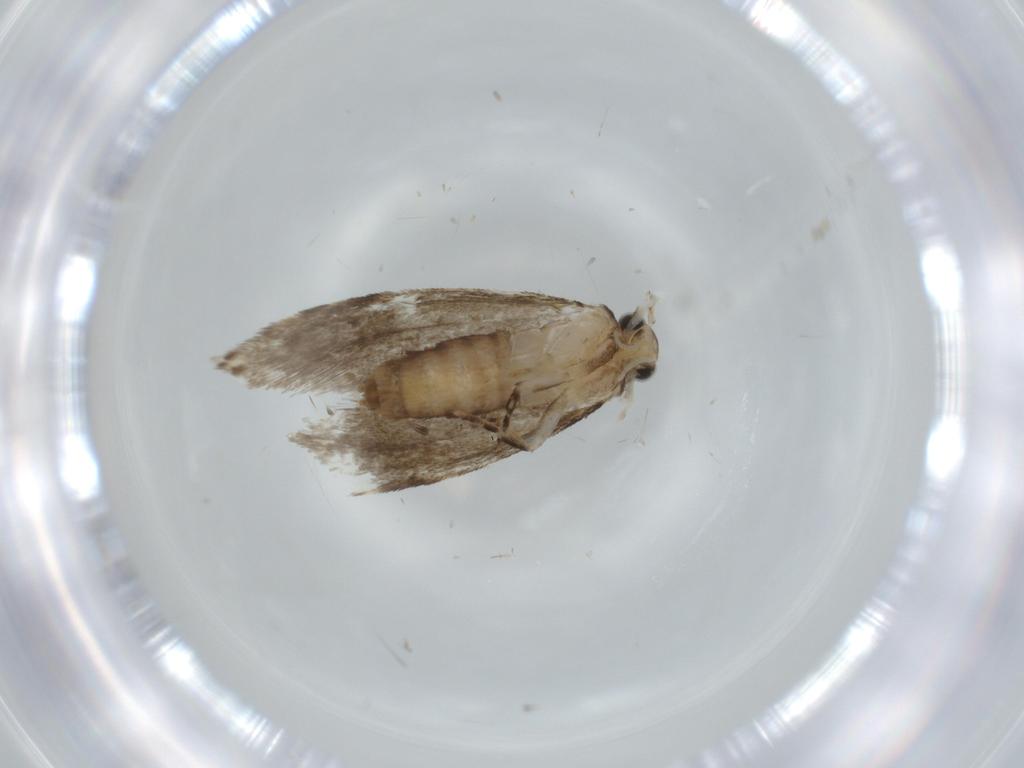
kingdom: Animalia
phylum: Arthropoda
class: Insecta
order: Lepidoptera
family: Tineidae
